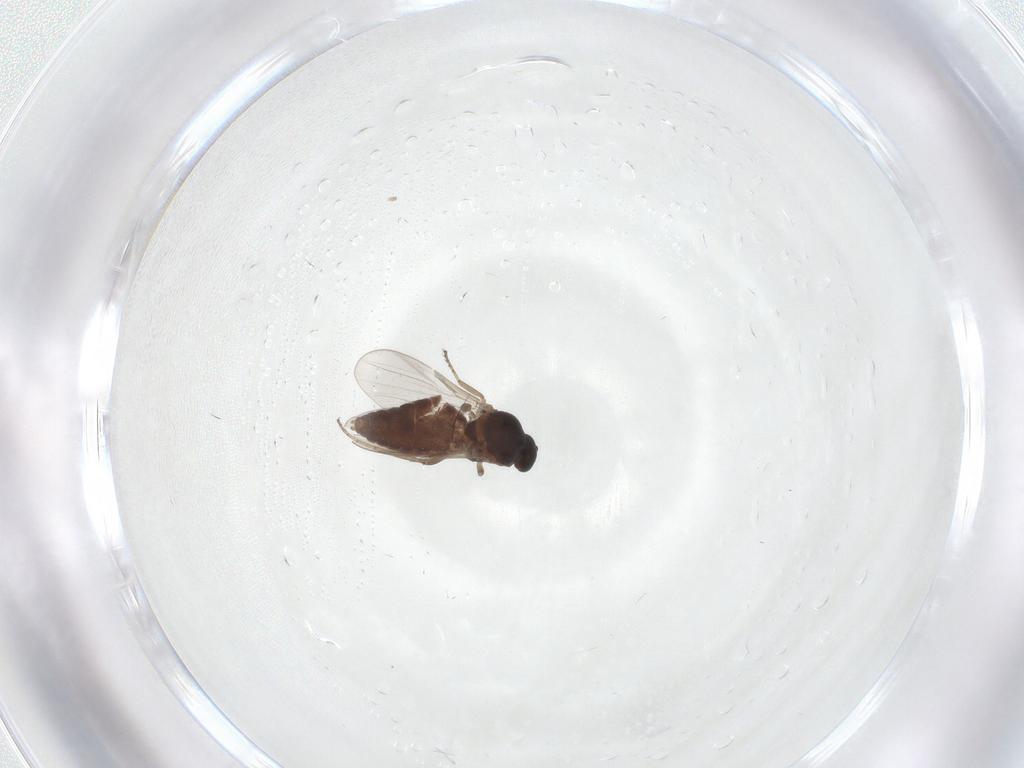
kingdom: Animalia
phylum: Arthropoda
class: Insecta
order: Diptera
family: Ceratopogonidae
